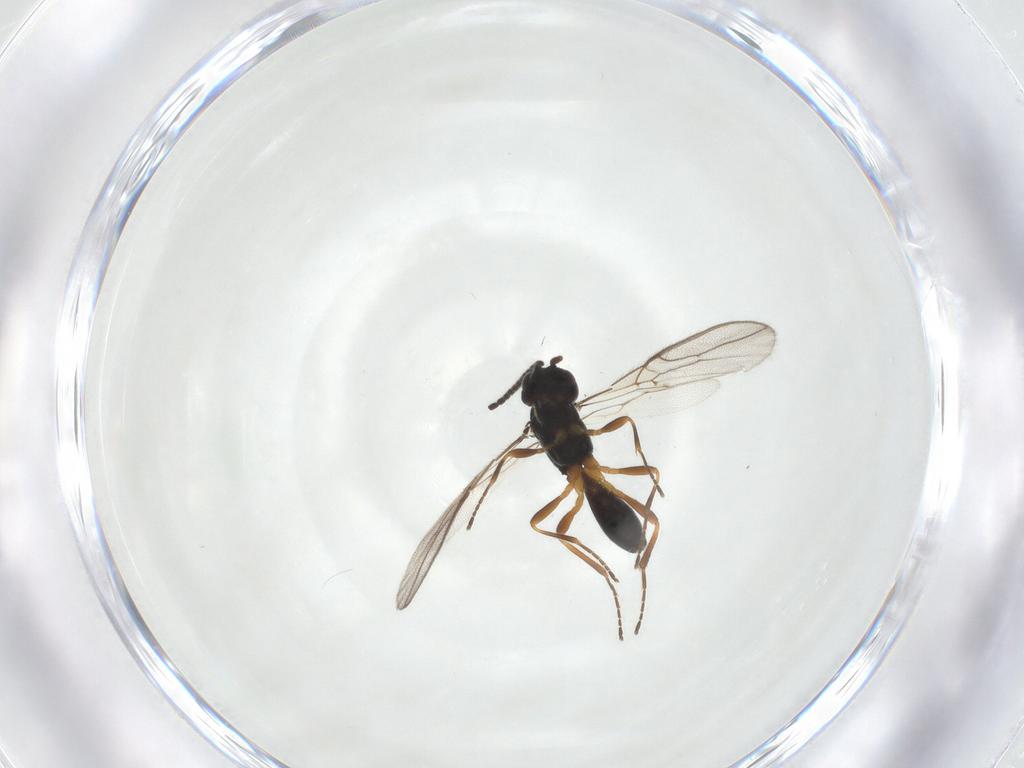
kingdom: Animalia
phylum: Arthropoda
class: Insecta
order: Hymenoptera
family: Braconidae
